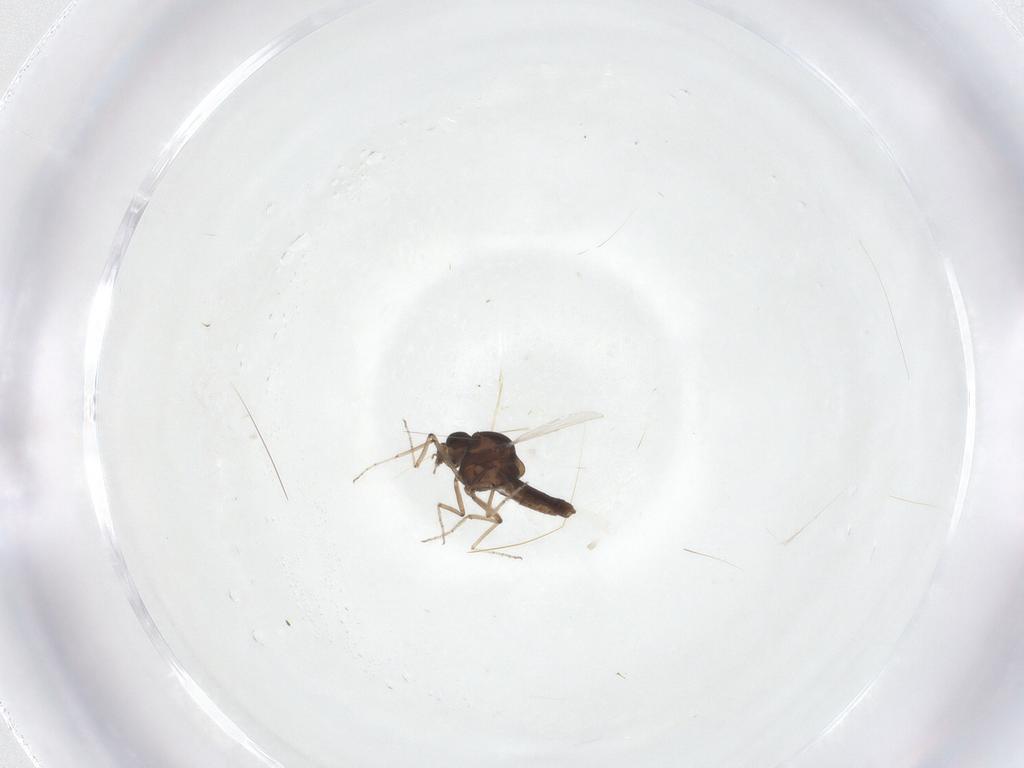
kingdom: Animalia
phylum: Arthropoda
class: Insecta
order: Diptera
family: Ceratopogonidae
